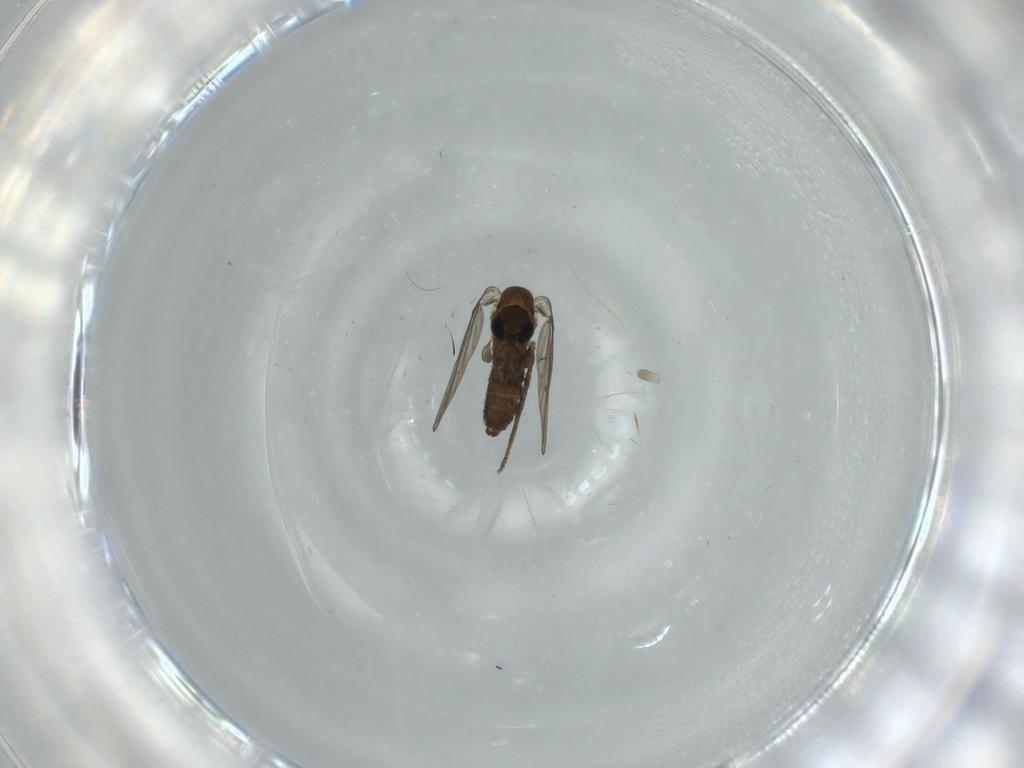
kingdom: Animalia
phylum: Arthropoda
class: Insecta
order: Diptera
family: Psychodidae
